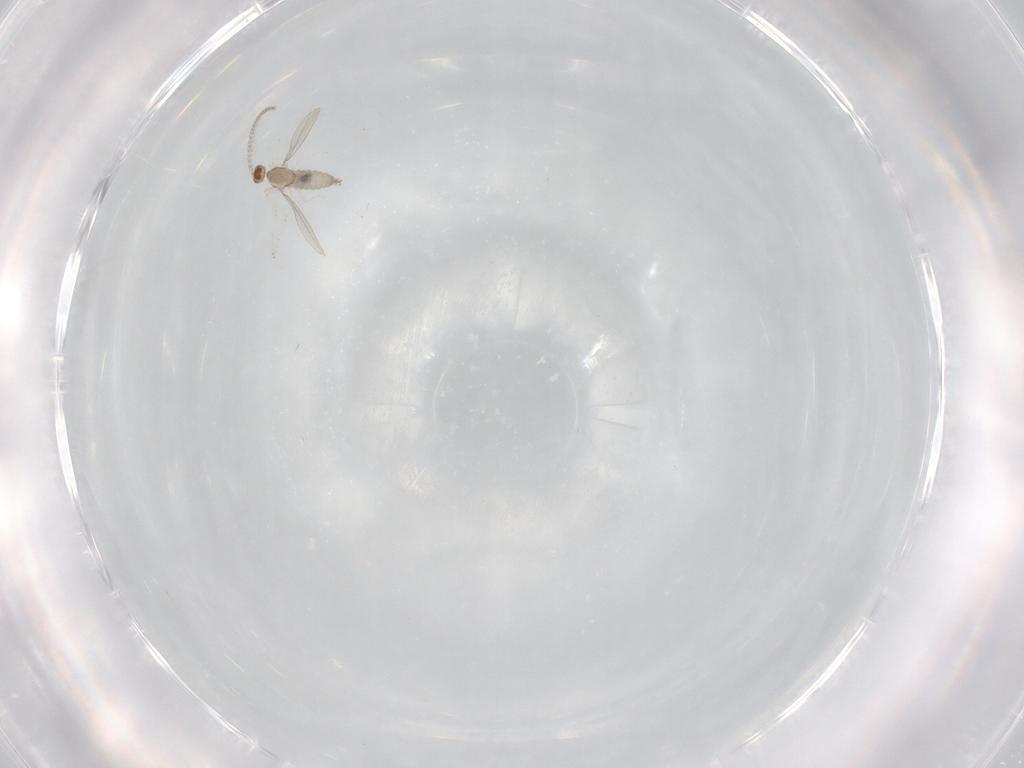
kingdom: Animalia
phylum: Arthropoda
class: Insecta
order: Diptera
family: Cecidomyiidae
